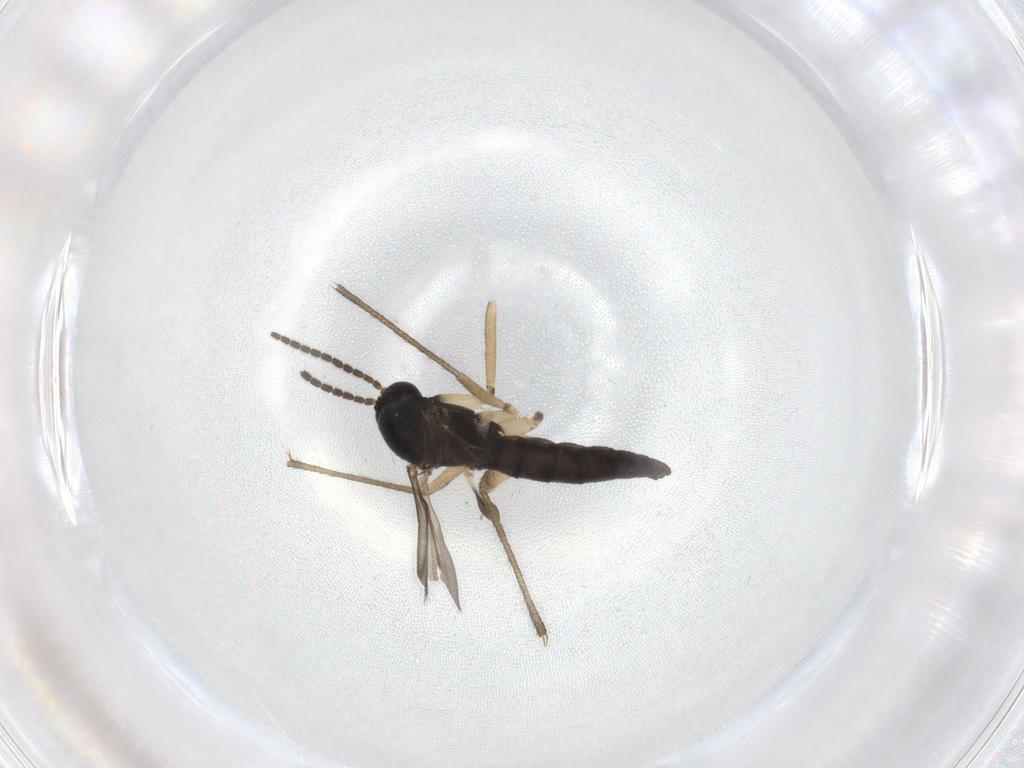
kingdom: Animalia
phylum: Arthropoda
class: Insecta
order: Diptera
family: Sciaridae
